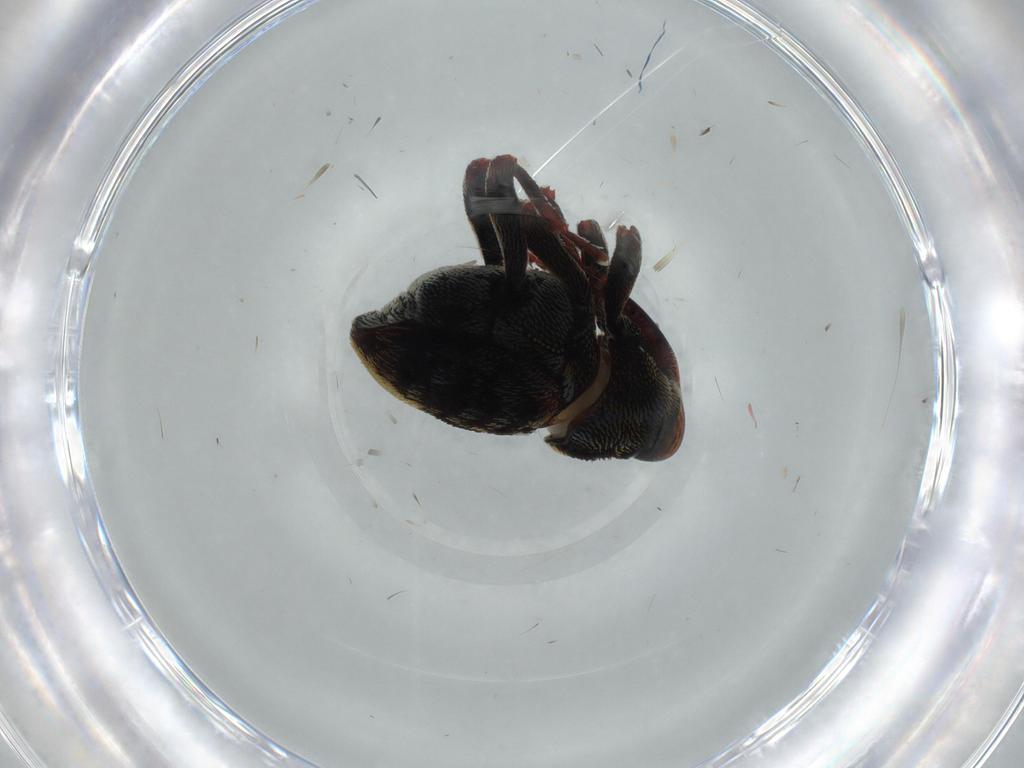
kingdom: Animalia
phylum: Arthropoda
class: Insecta
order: Coleoptera
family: Curculionidae
